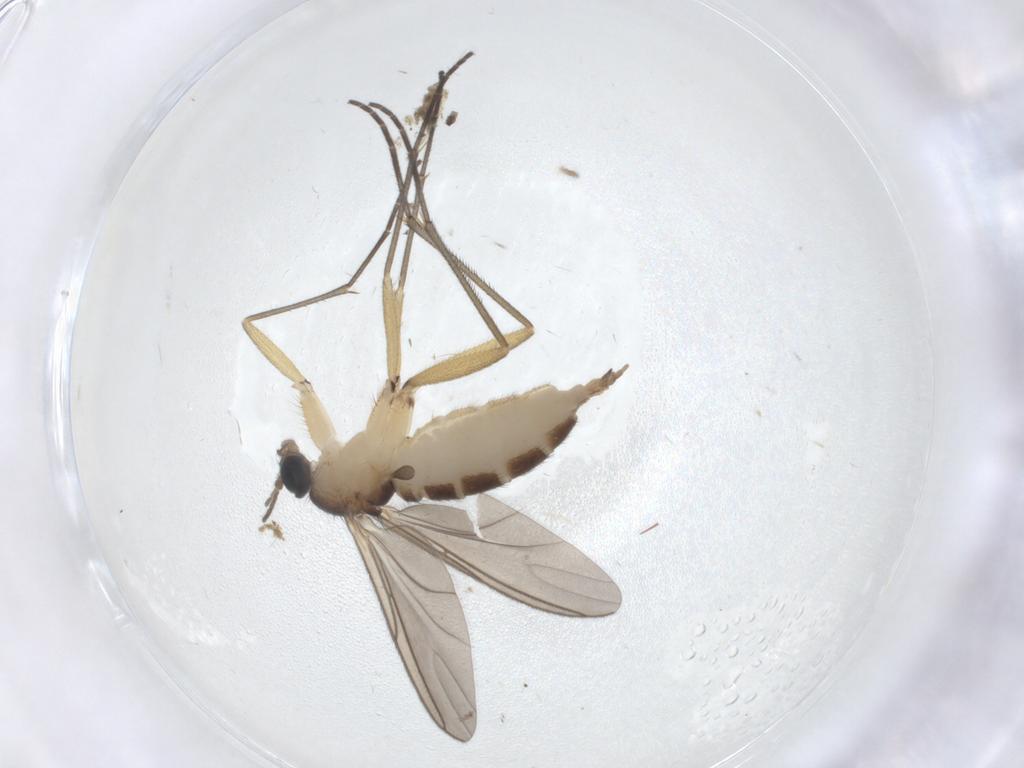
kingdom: Animalia
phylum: Arthropoda
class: Insecta
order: Diptera
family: Sciaridae
